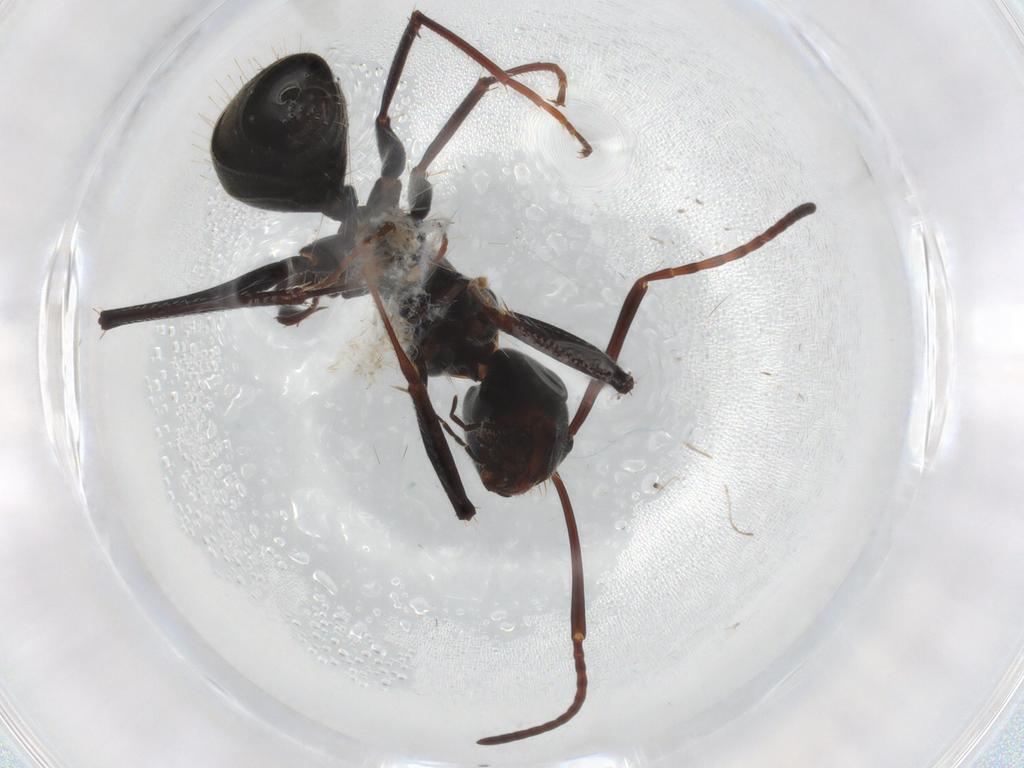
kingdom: Animalia
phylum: Arthropoda
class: Insecta
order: Hymenoptera
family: Formicidae
